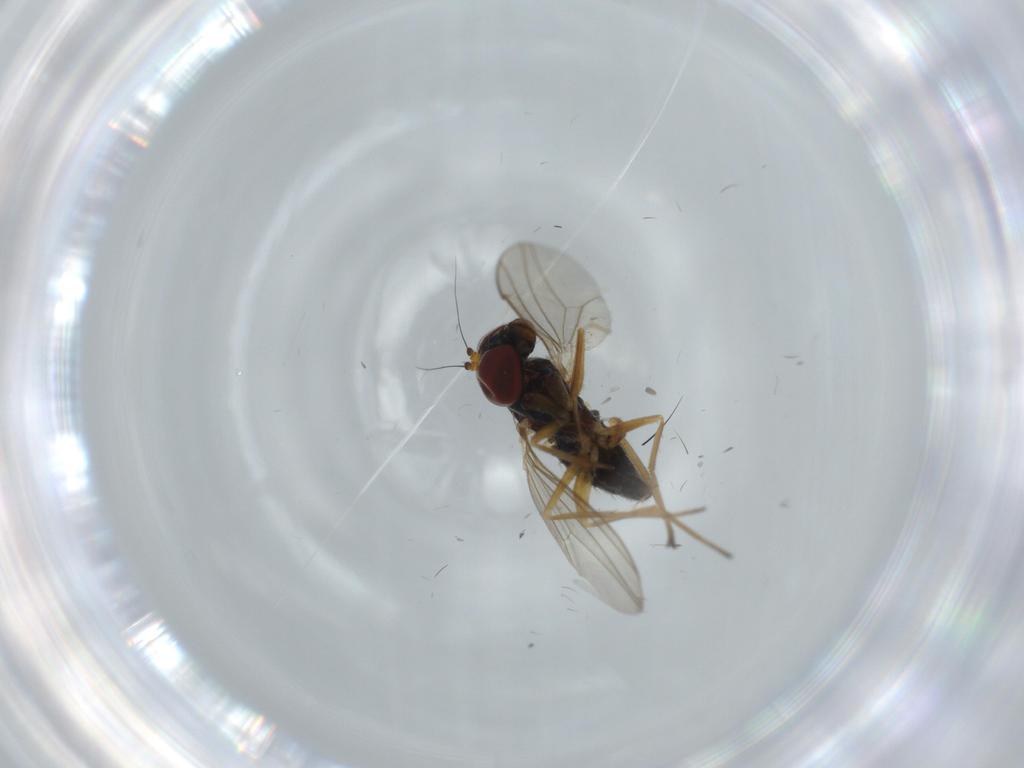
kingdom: Animalia
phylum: Arthropoda
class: Insecta
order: Diptera
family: Dolichopodidae
